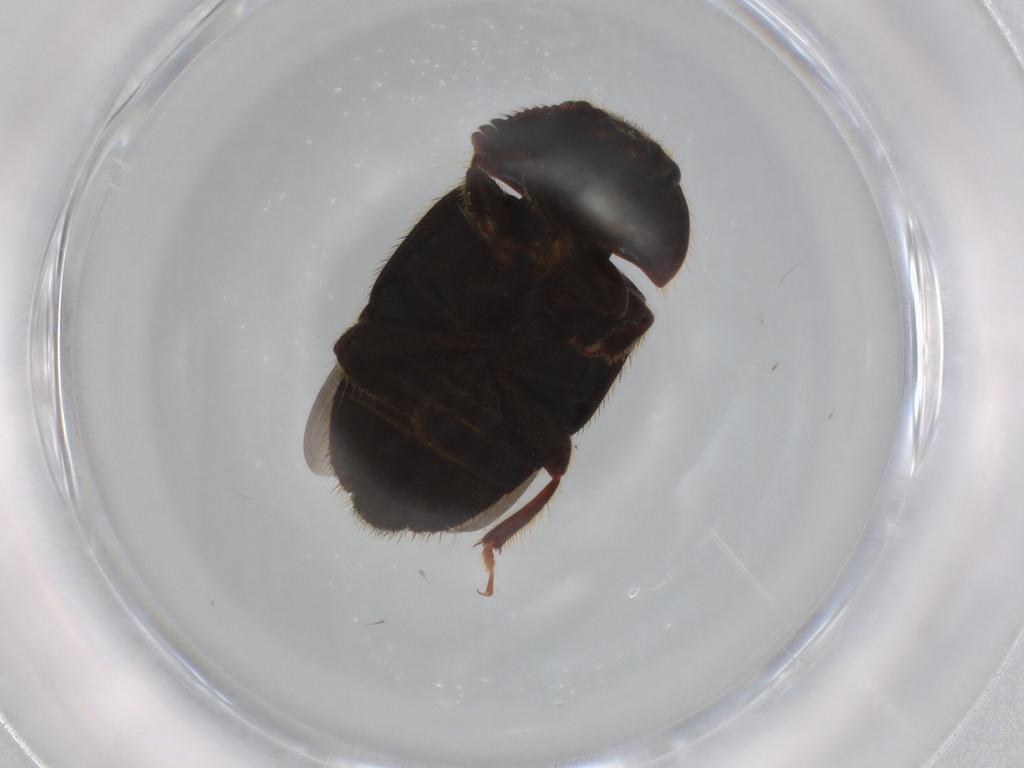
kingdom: Animalia
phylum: Arthropoda
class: Insecta
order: Coleoptera
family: Nitidulidae
